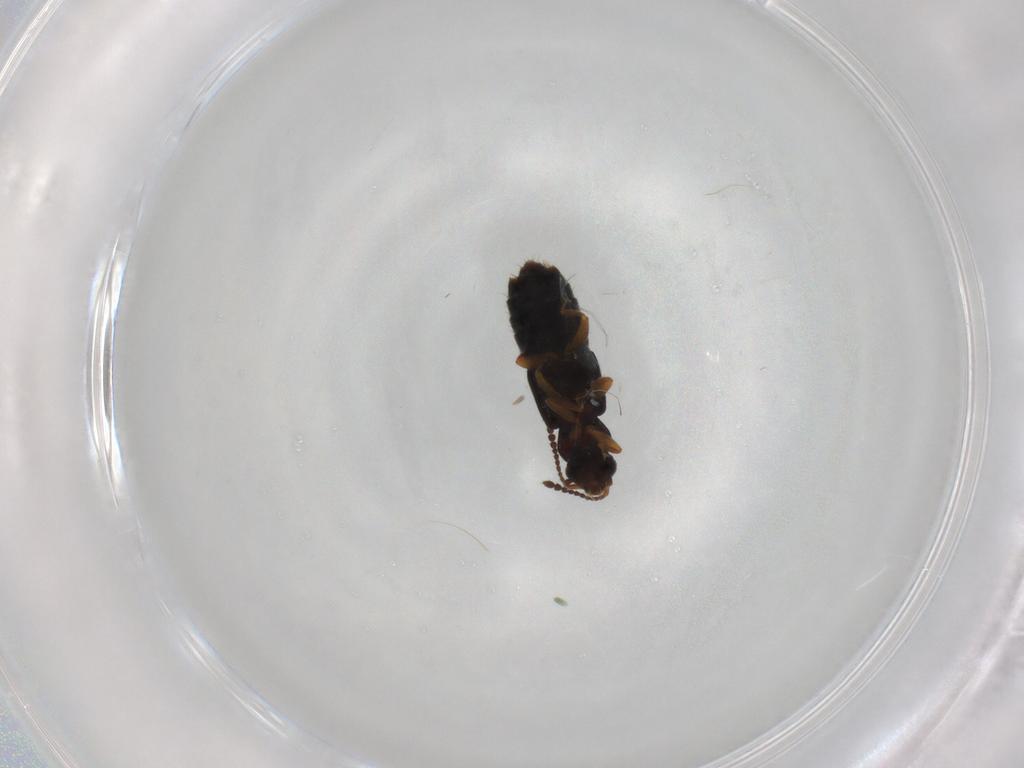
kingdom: Animalia
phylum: Arthropoda
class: Insecta
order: Coleoptera
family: Staphylinidae
